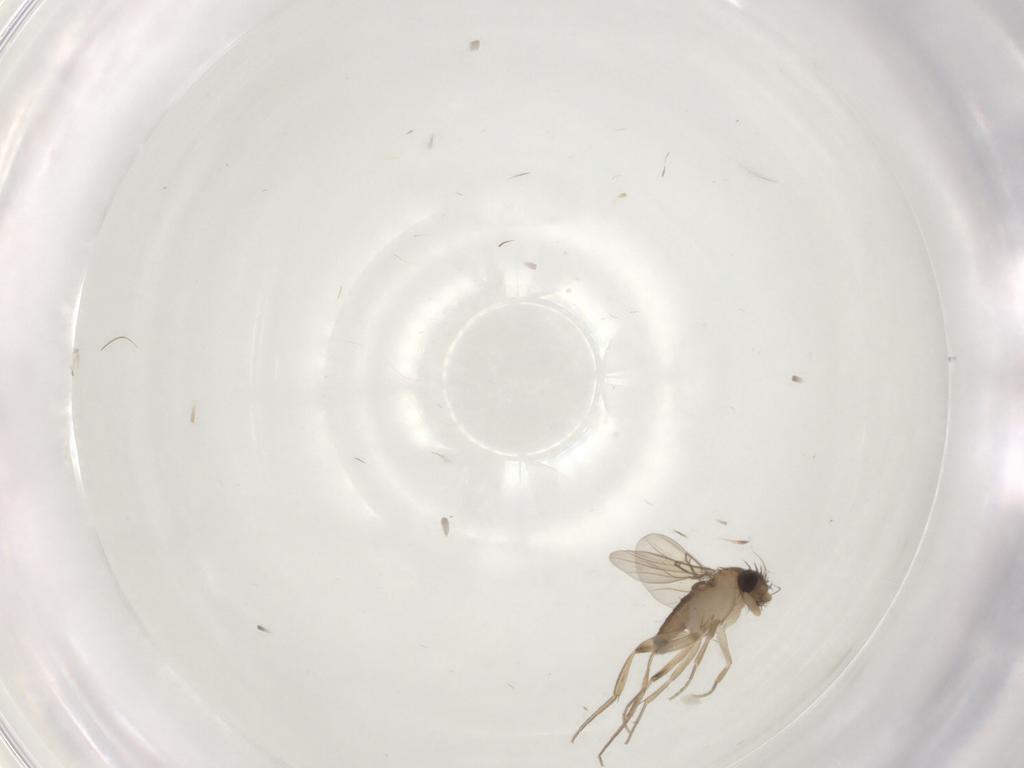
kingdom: Animalia
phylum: Arthropoda
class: Insecta
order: Diptera
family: Phoridae
